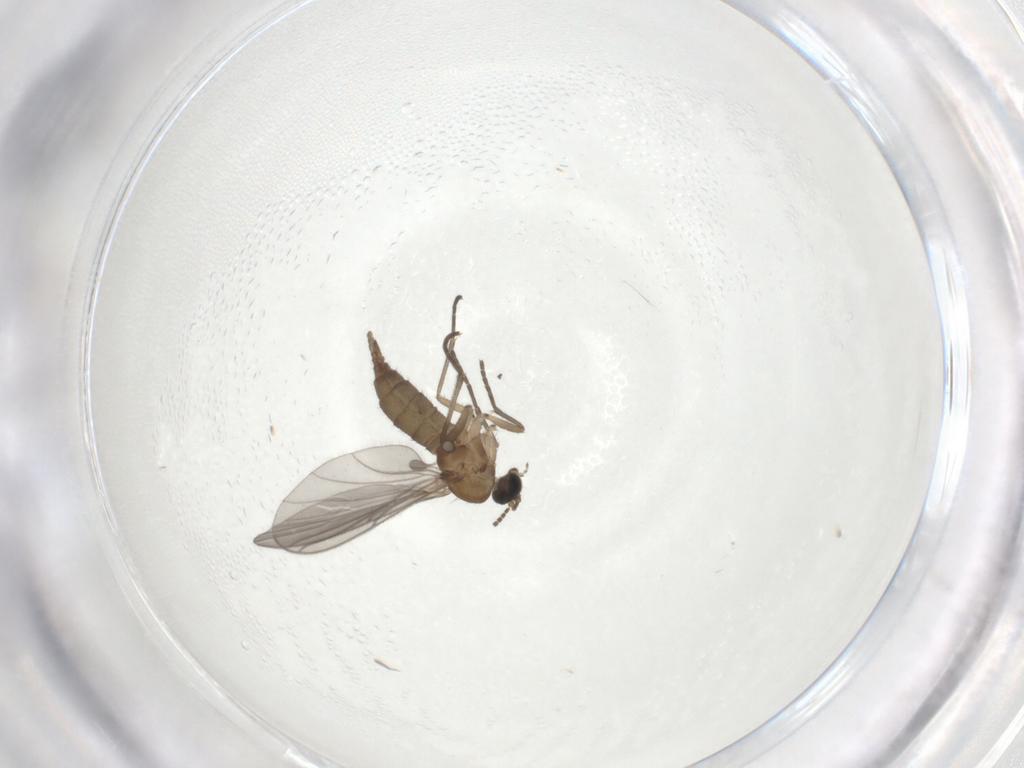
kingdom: Animalia
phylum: Arthropoda
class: Insecta
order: Diptera
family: Sciaridae
